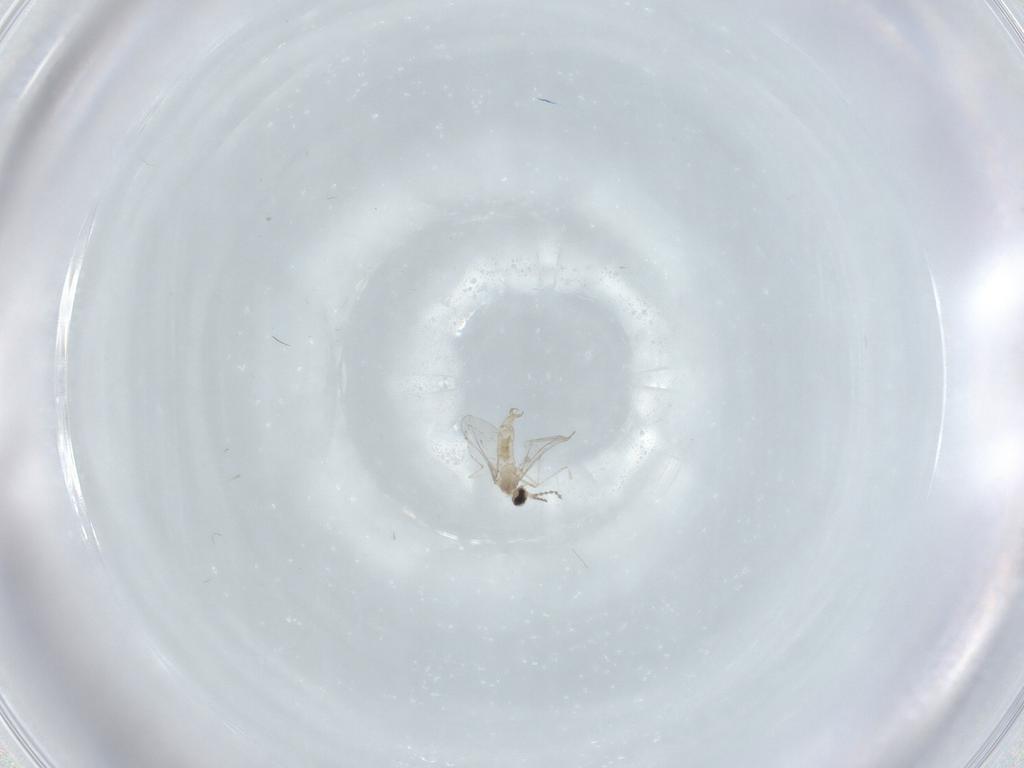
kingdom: Animalia
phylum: Arthropoda
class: Insecta
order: Diptera
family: Cecidomyiidae
